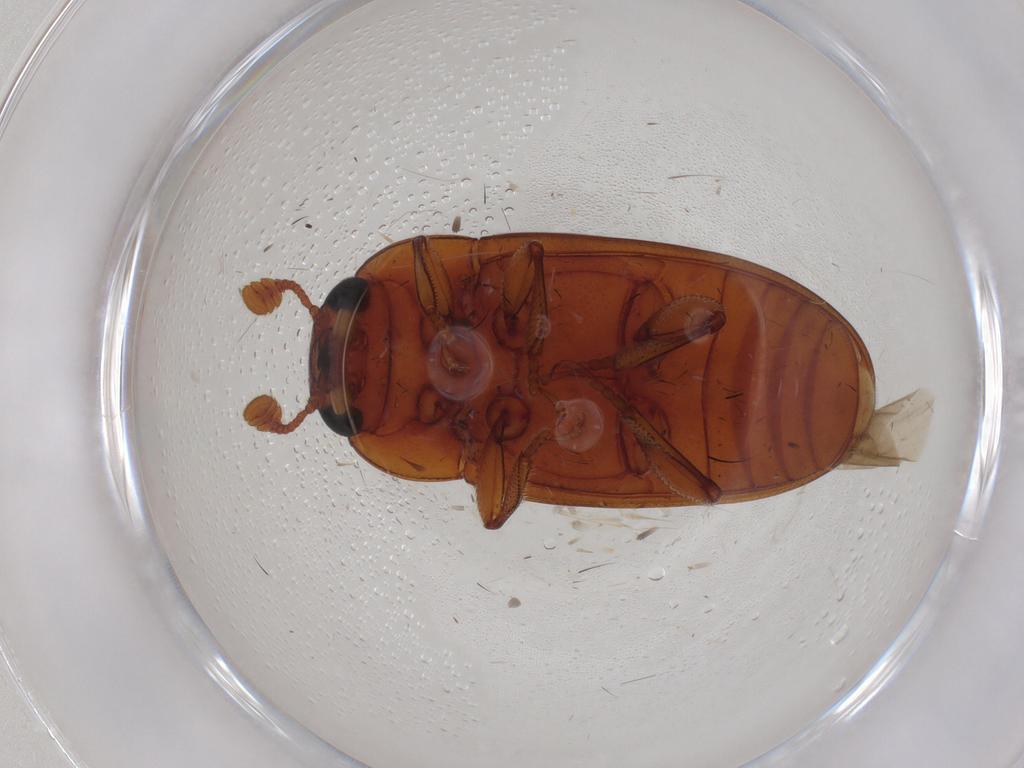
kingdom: Animalia
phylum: Arthropoda
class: Insecta
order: Coleoptera
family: Erotylidae
